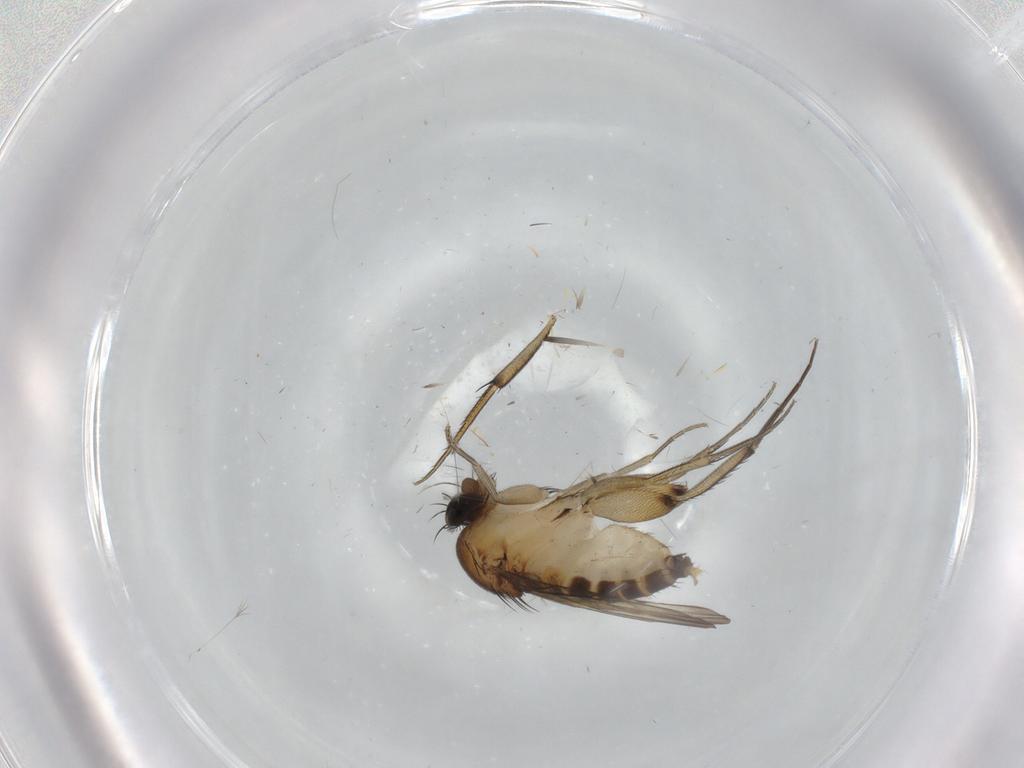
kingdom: Animalia
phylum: Arthropoda
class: Insecta
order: Diptera
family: Phoridae
